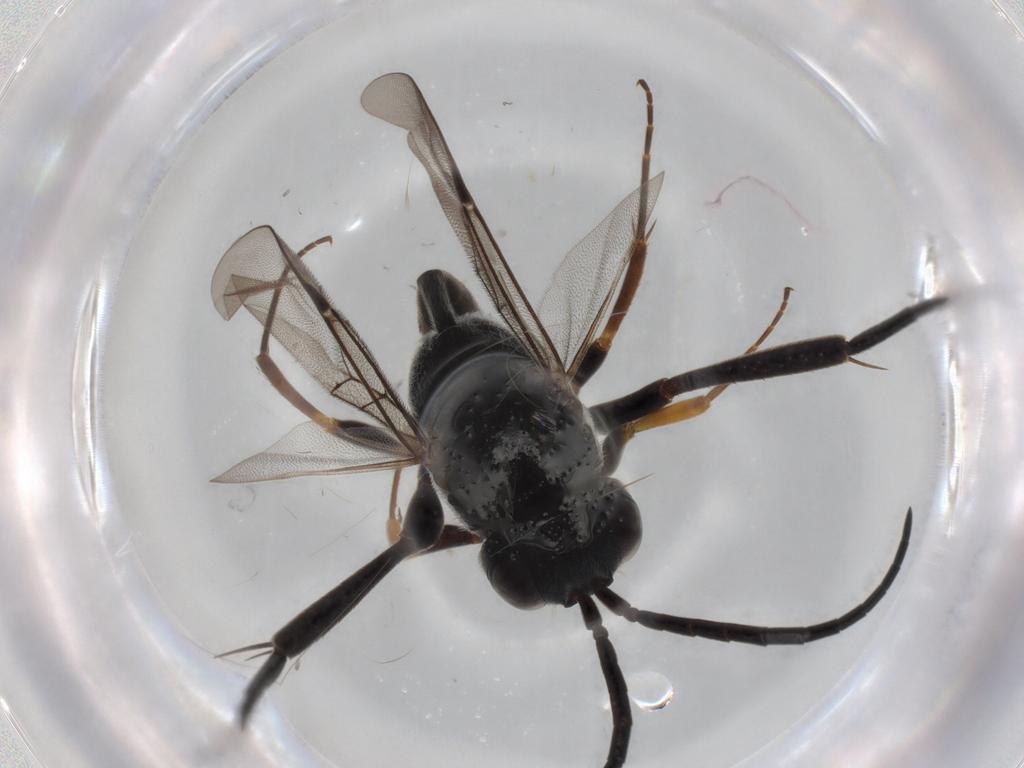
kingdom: Animalia
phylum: Arthropoda
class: Insecta
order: Hymenoptera
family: Evaniidae
